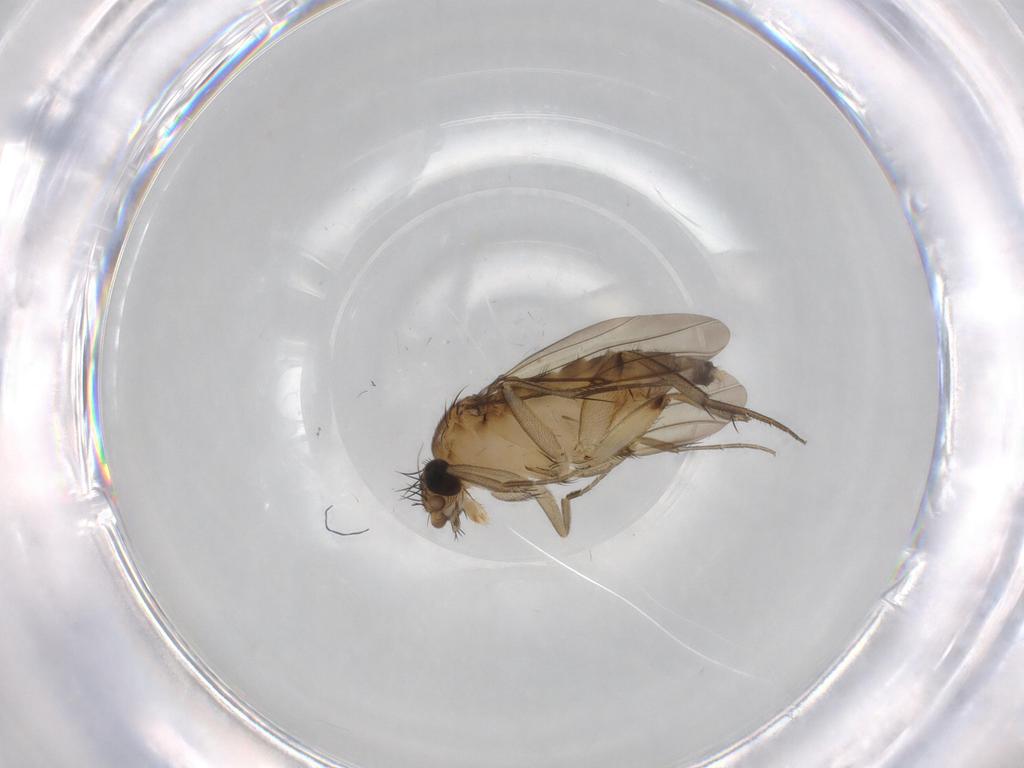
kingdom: Animalia
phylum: Arthropoda
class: Insecta
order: Diptera
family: Phoridae
